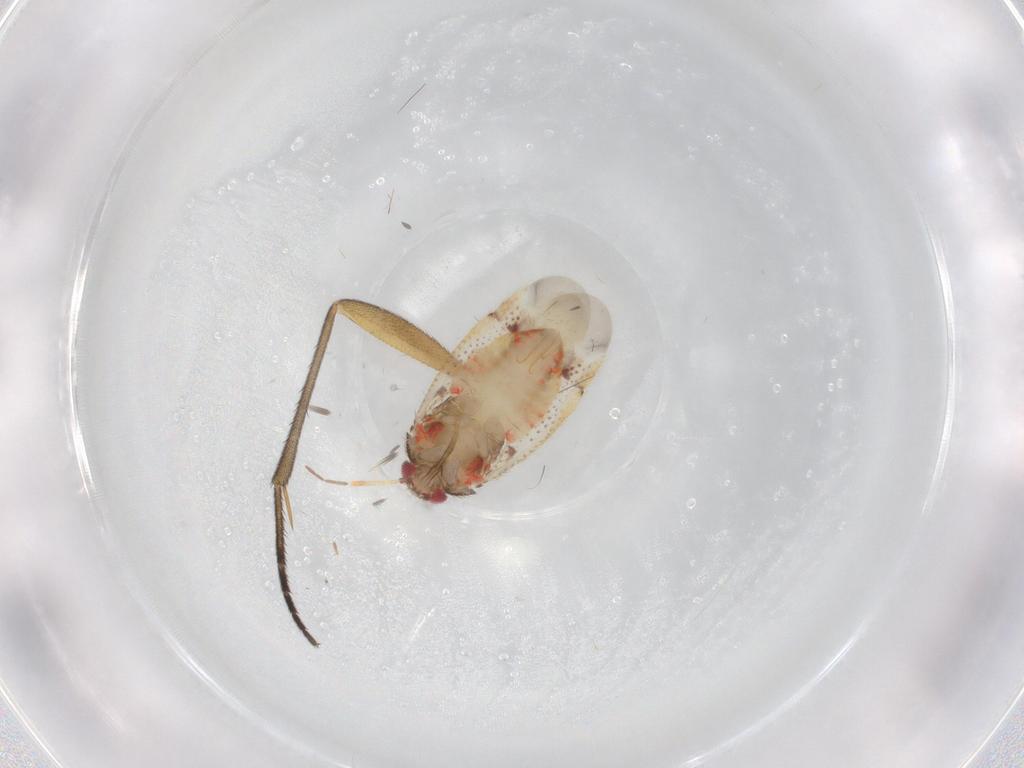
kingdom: Animalia
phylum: Arthropoda
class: Insecta
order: Hemiptera
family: Miridae
